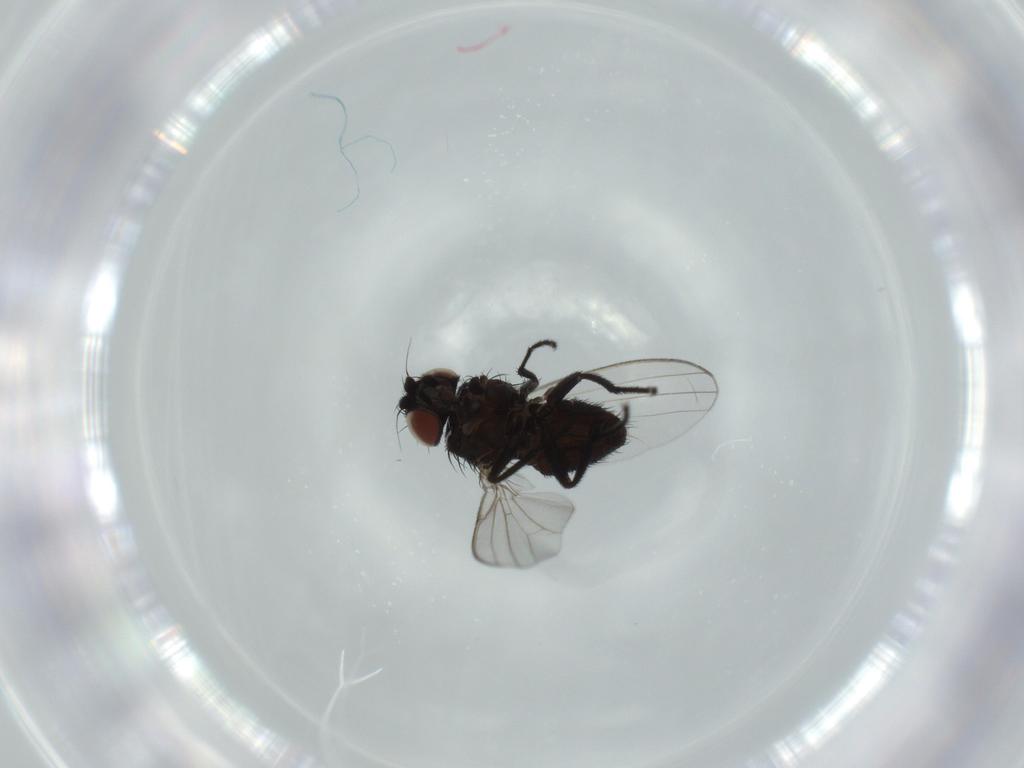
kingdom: Animalia
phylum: Arthropoda
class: Insecta
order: Diptera
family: Milichiidae
